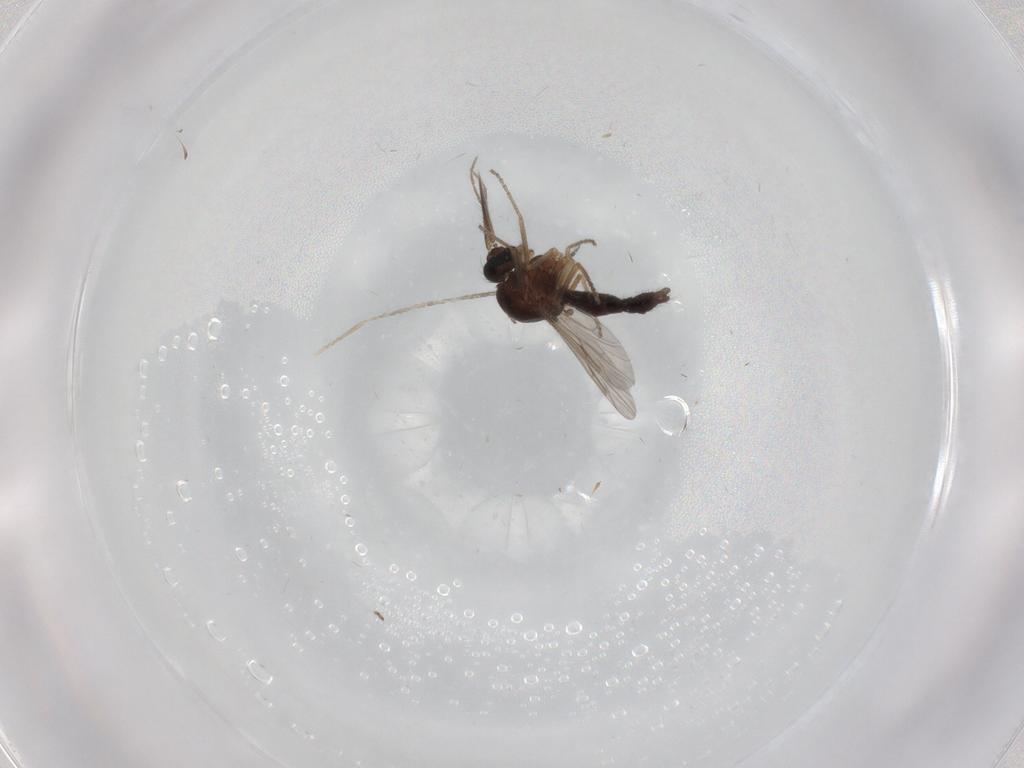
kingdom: Animalia
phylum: Arthropoda
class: Insecta
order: Diptera
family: Ceratopogonidae
